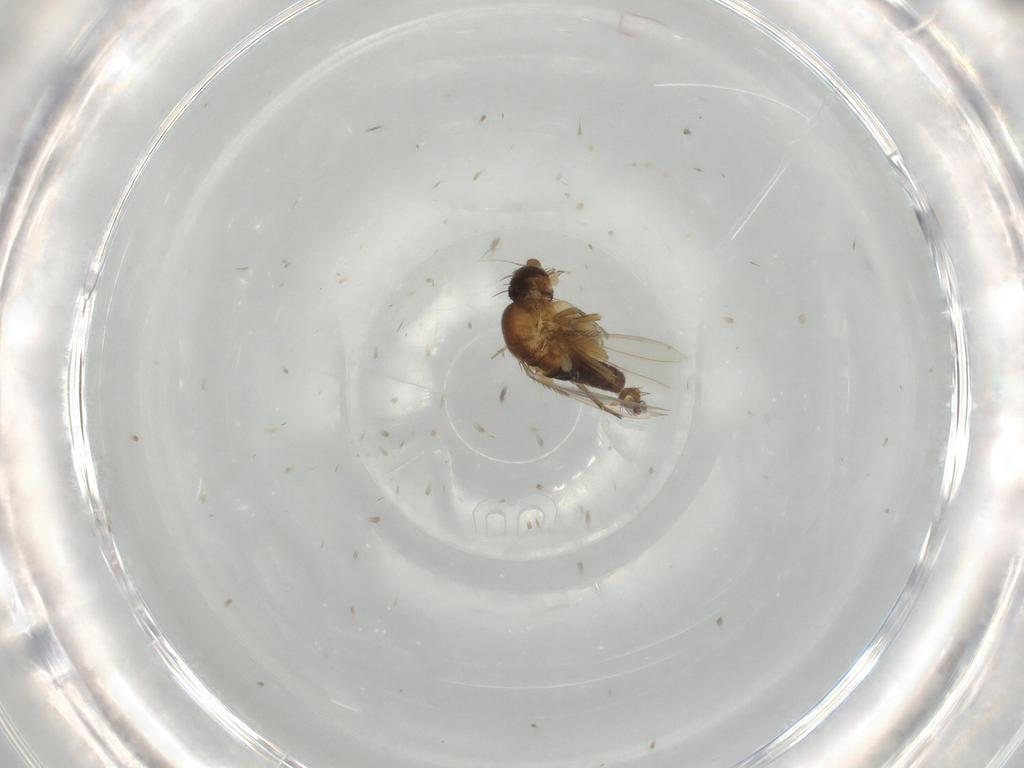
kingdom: Animalia
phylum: Arthropoda
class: Insecta
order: Diptera
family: Phoridae
